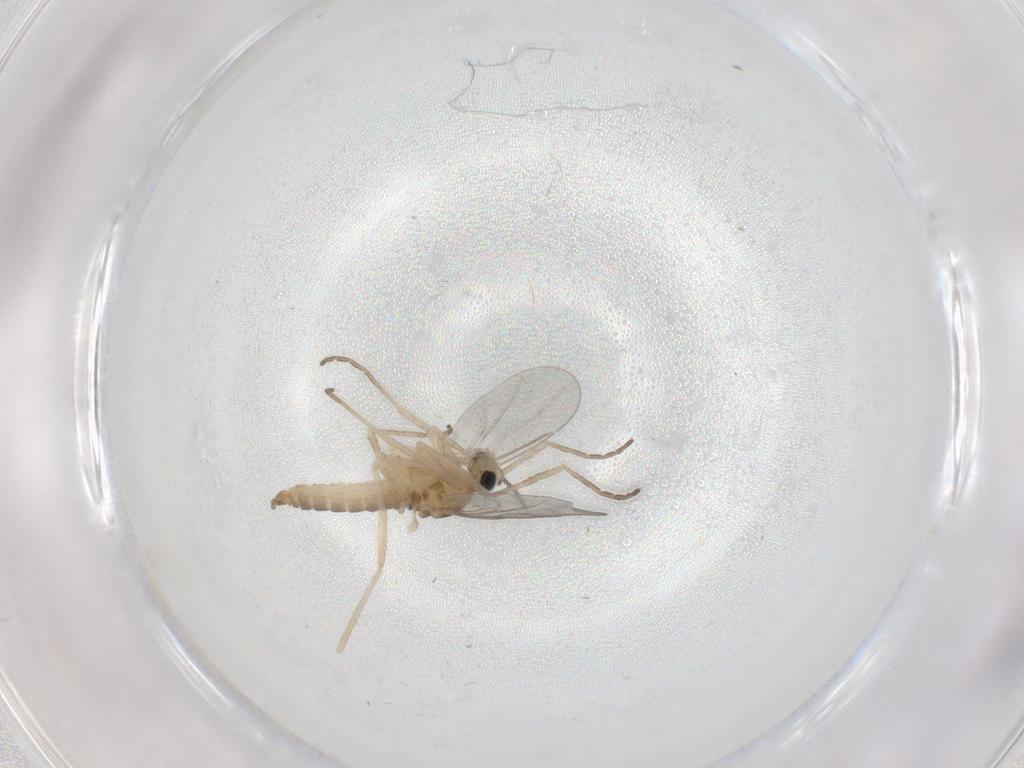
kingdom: Animalia
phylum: Arthropoda
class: Insecta
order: Diptera
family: Cecidomyiidae
